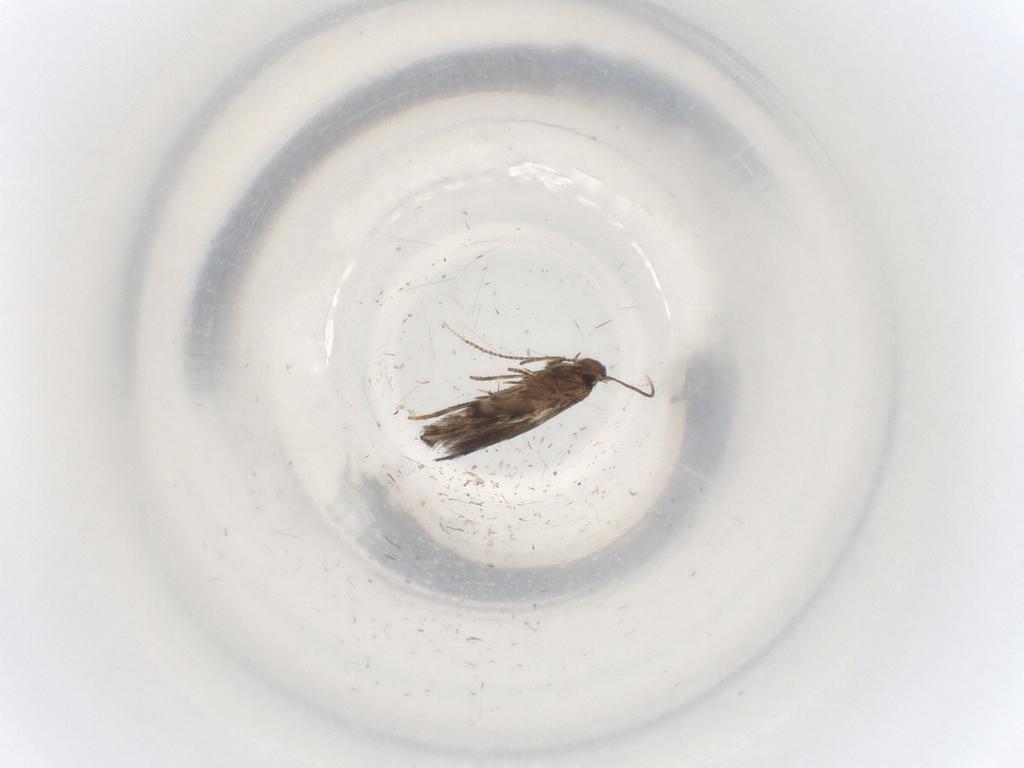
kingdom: Animalia
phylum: Arthropoda
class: Insecta
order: Lepidoptera
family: Gracillariidae
